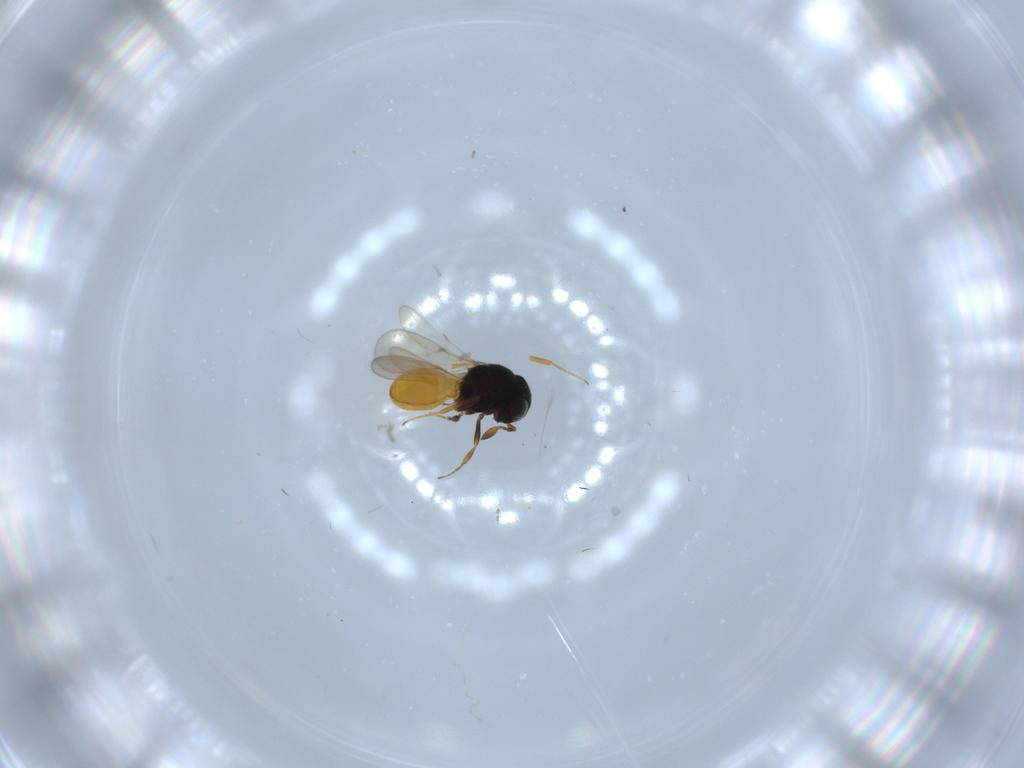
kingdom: Animalia
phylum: Arthropoda
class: Insecta
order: Hymenoptera
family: Scelionidae
